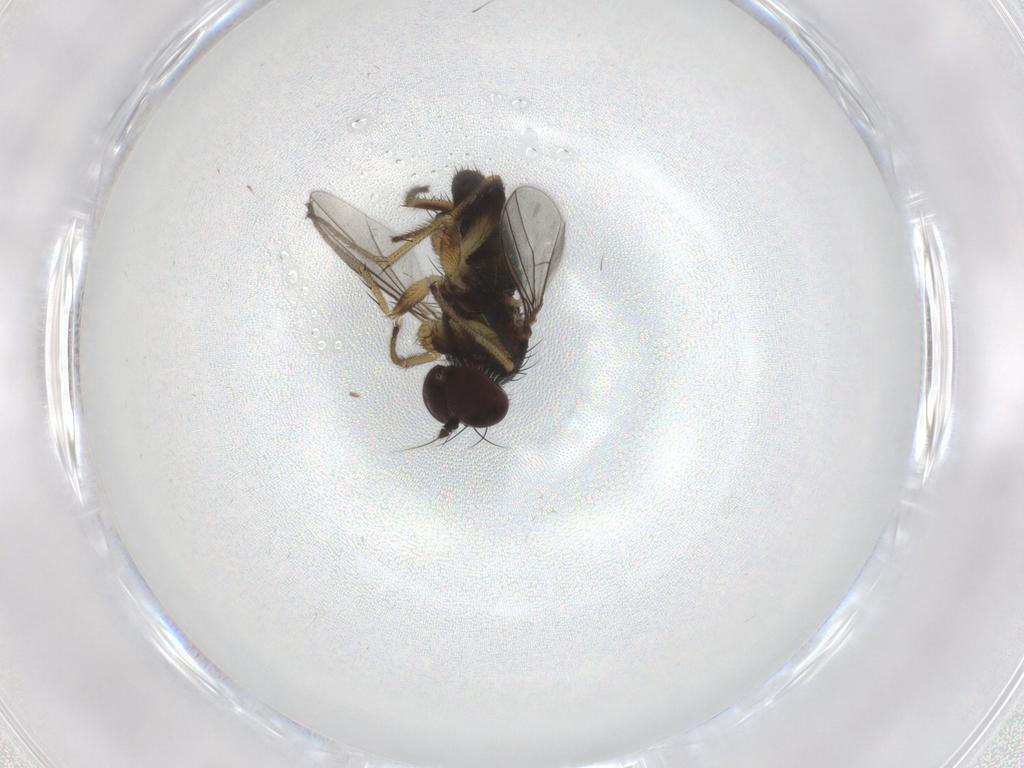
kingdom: Animalia
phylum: Arthropoda
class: Insecta
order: Diptera
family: Dolichopodidae
